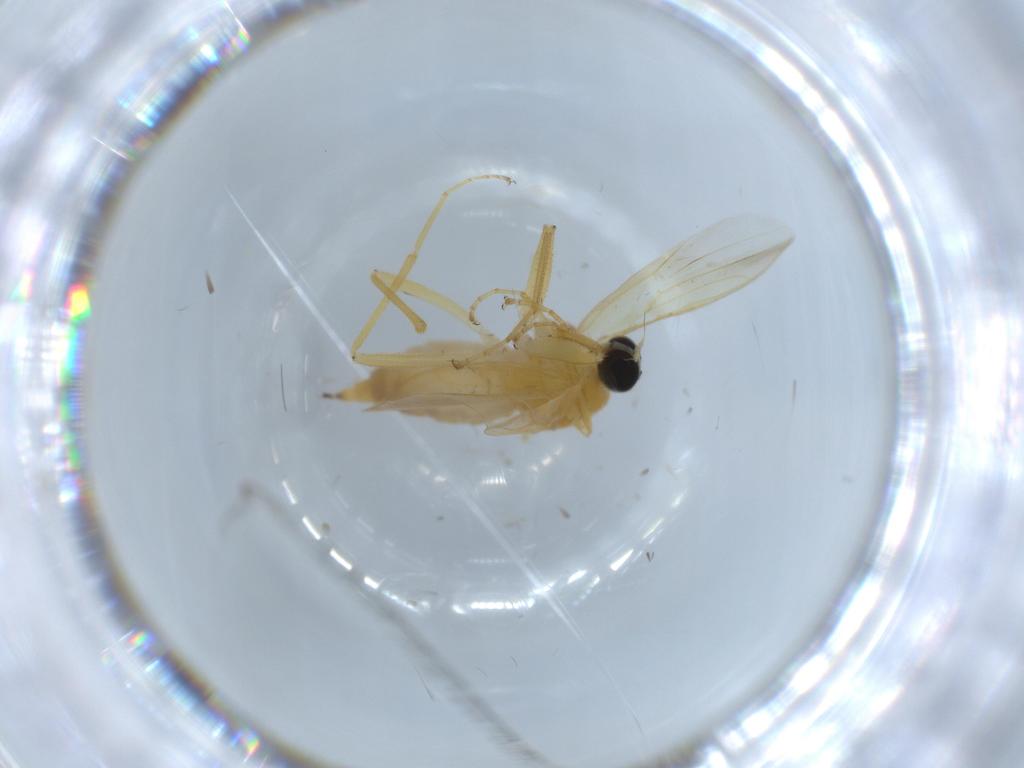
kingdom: Animalia
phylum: Arthropoda
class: Insecta
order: Diptera
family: Hybotidae
